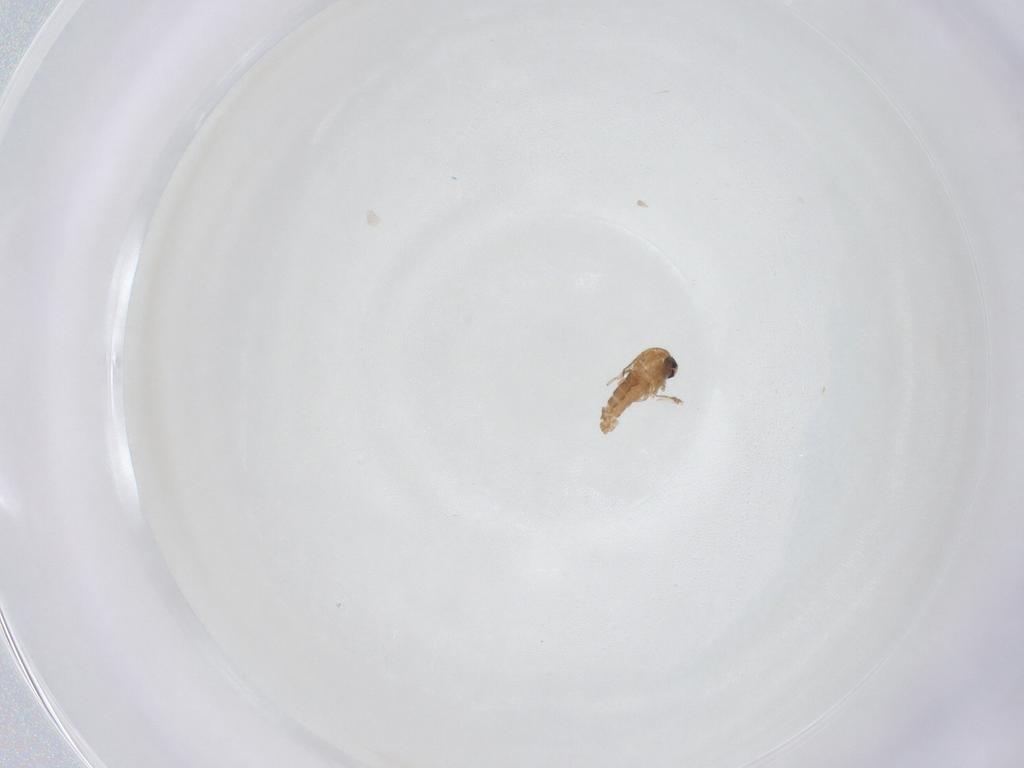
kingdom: Animalia
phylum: Arthropoda
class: Insecta
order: Diptera
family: Ceratopogonidae
